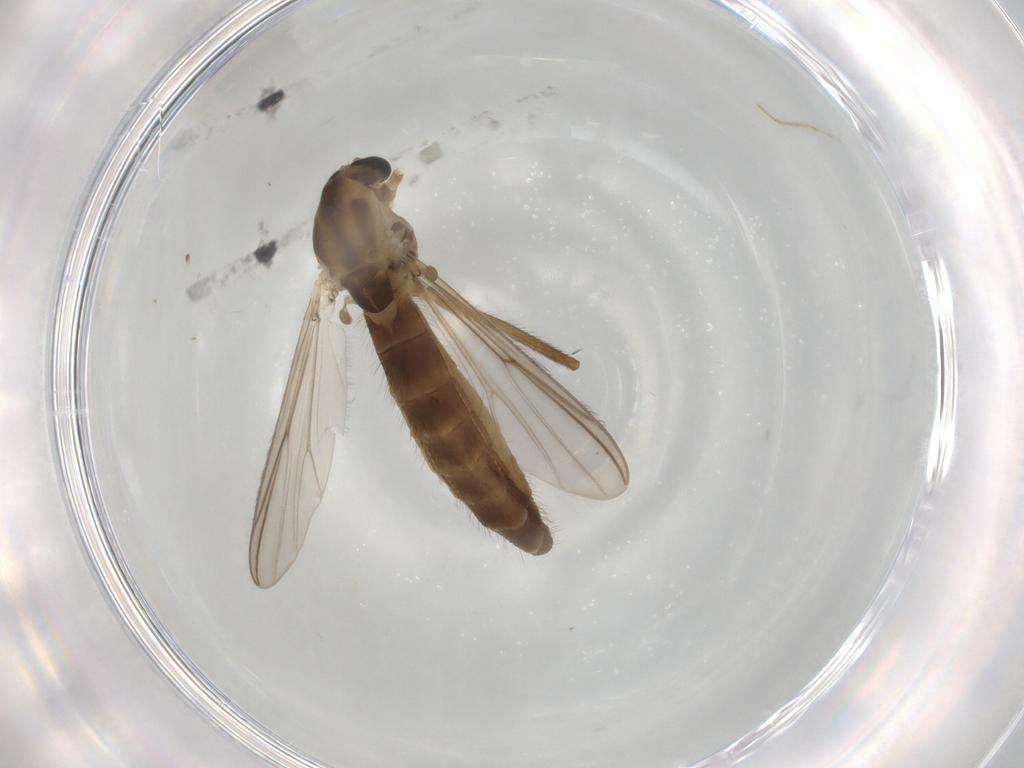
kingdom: Animalia
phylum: Arthropoda
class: Insecta
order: Diptera
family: Chironomidae
